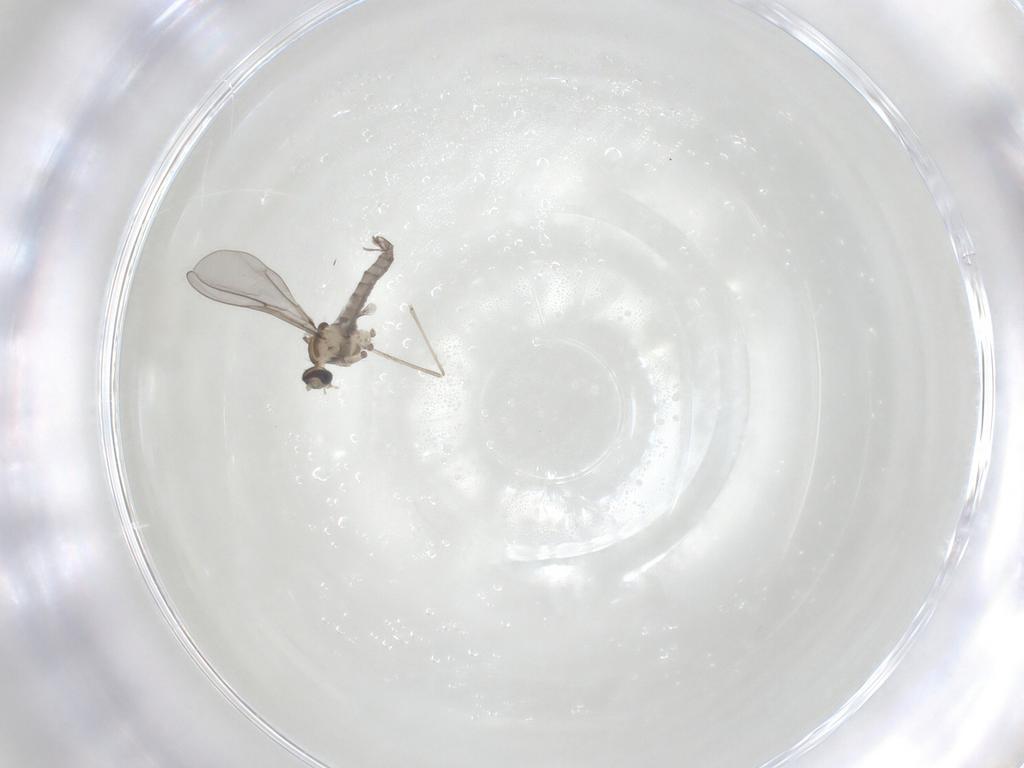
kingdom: Animalia
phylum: Arthropoda
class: Insecta
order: Diptera
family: Cecidomyiidae
